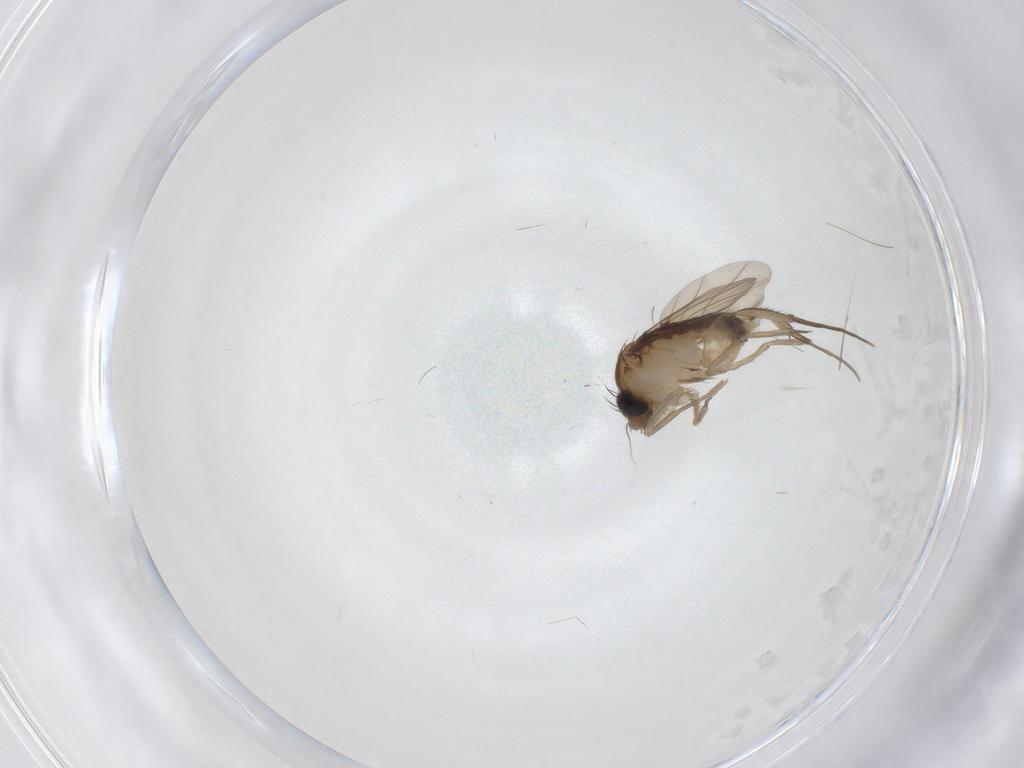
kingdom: Animalia
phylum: Arthropoda
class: Insecta
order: Diptera
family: Phoridae
